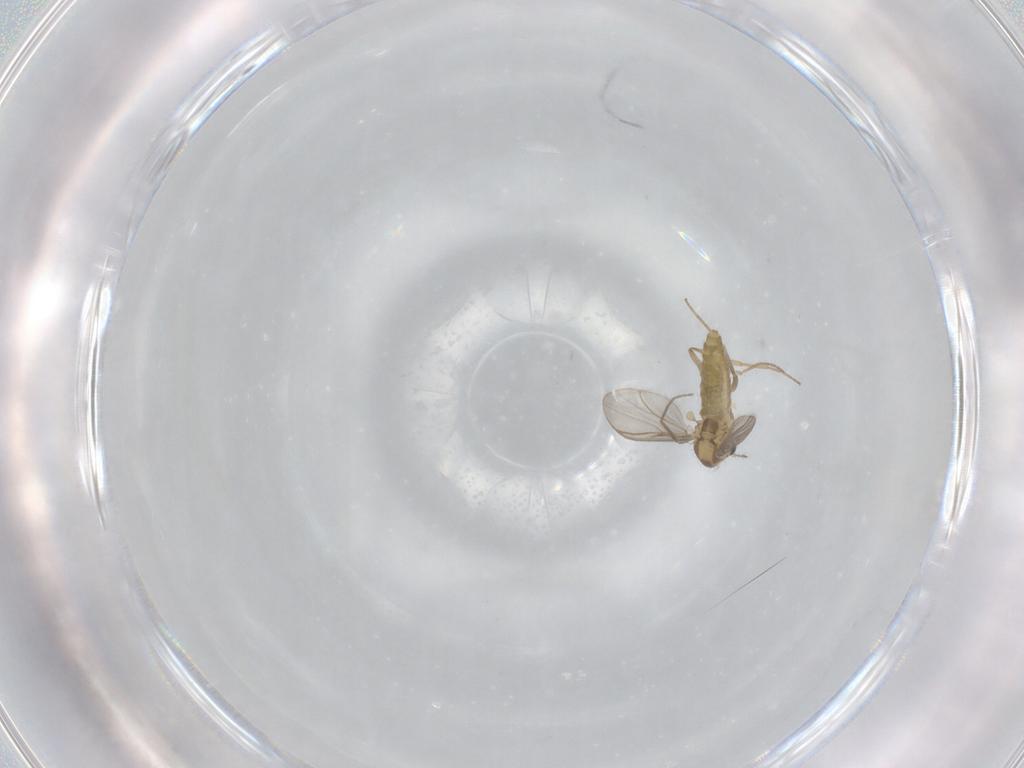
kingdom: Animalia
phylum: Arthropoda
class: Insecta
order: Diptera
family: Chironomidae
